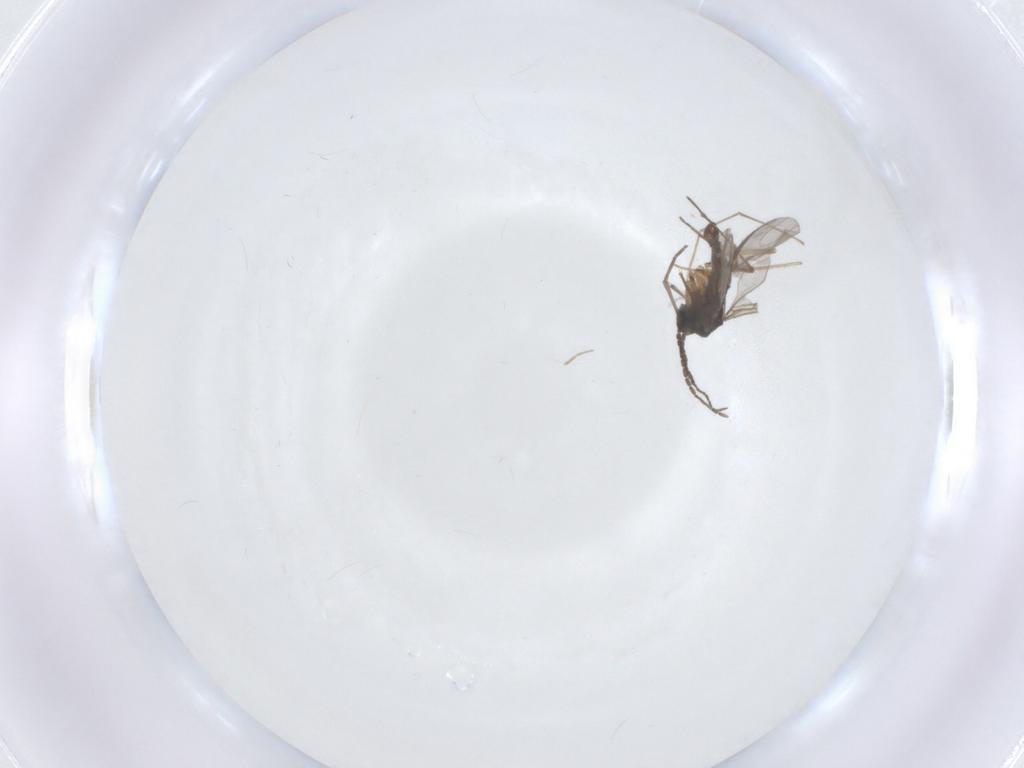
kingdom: Animalia
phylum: Arthropoda
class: Insecta
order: Diptera
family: Chironomidae
